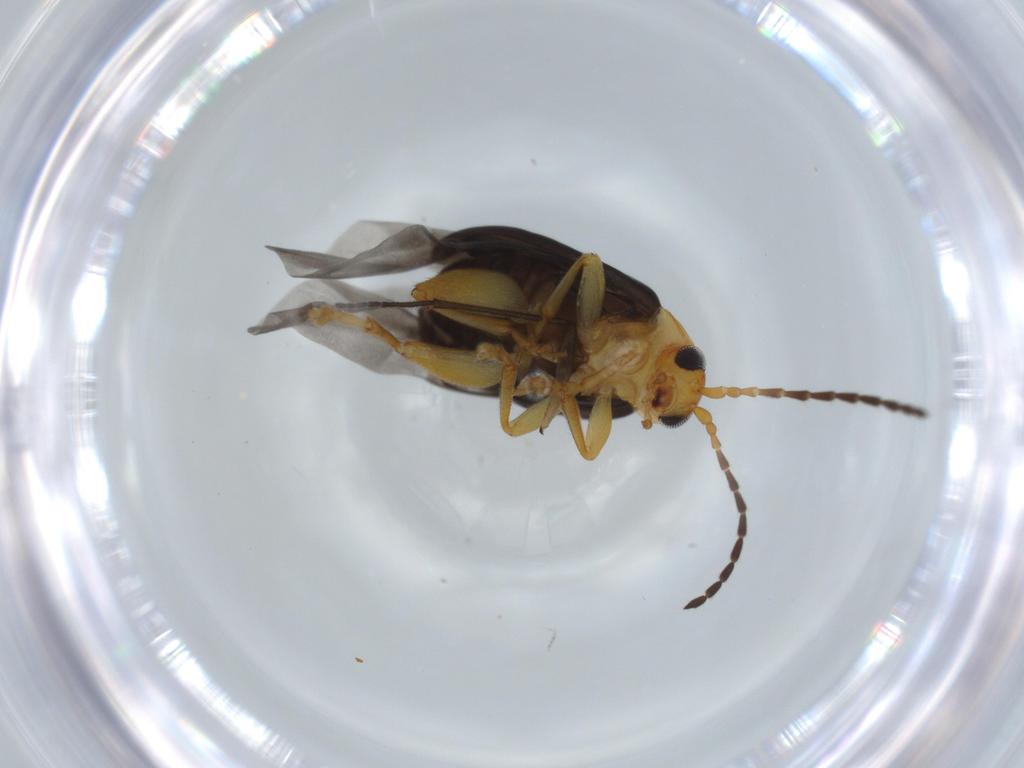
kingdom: Animalia
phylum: Arthropoda
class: Insecta
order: Coleoptera
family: Chrysomelidae
